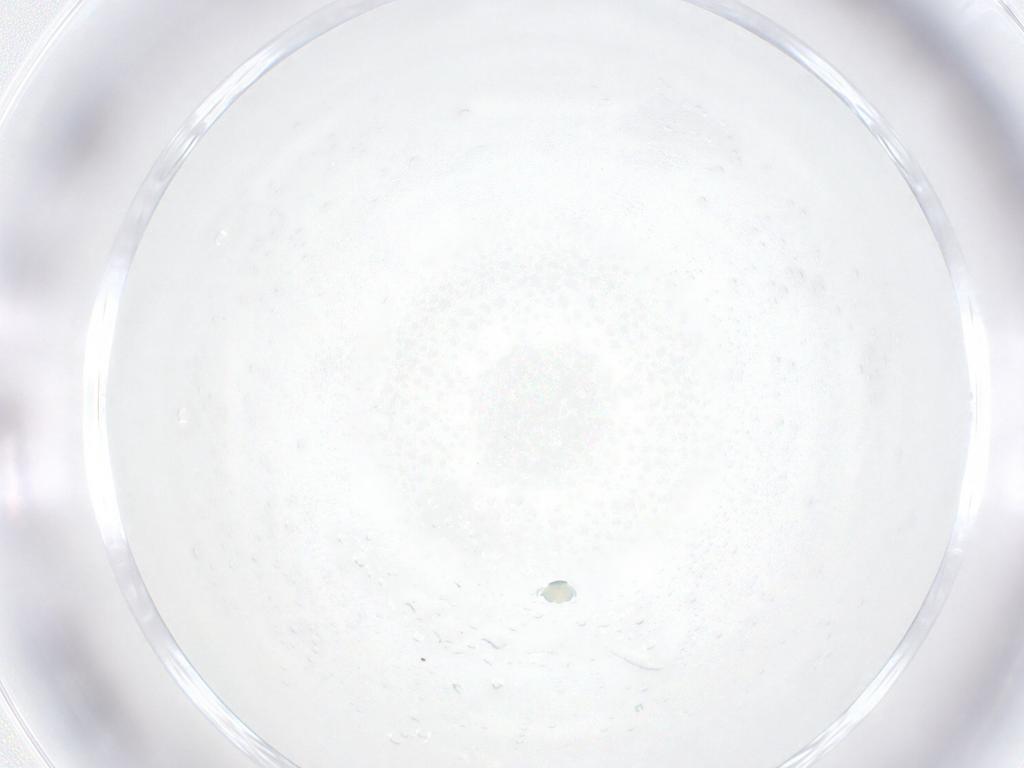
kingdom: Animalia
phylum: Arthropoda
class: Arachnida
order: Trombidiformes
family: Arrenuridae
